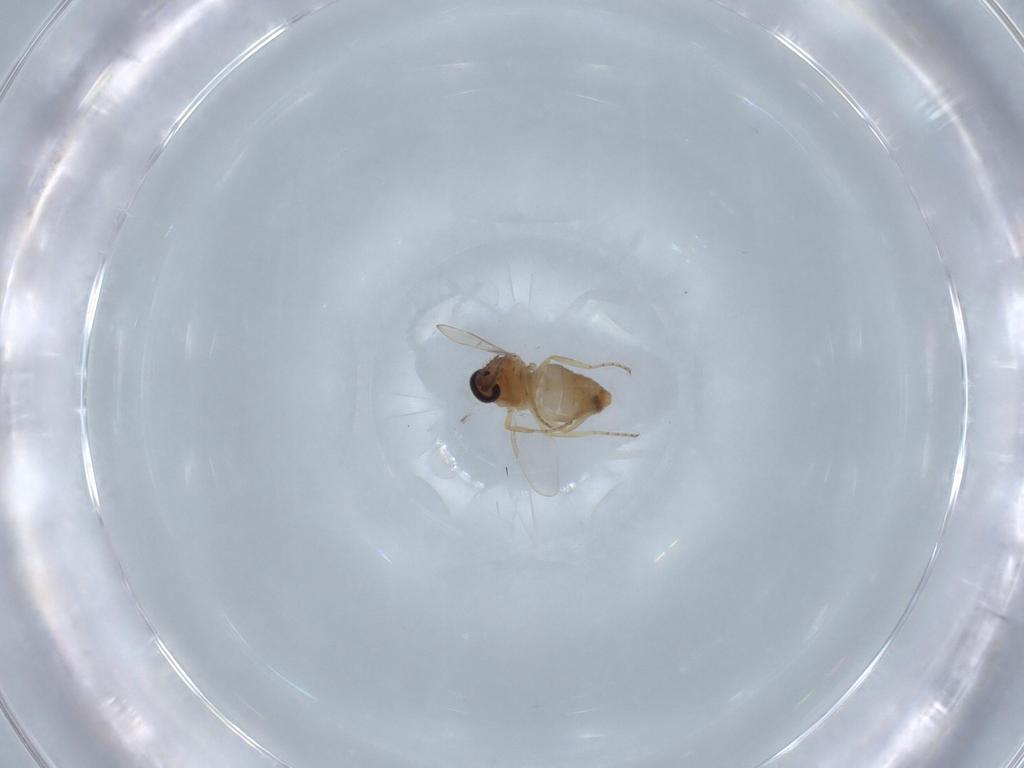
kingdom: Animalia
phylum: Arthropoda
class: Insecta
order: Diptera
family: Ceratopogonidae
